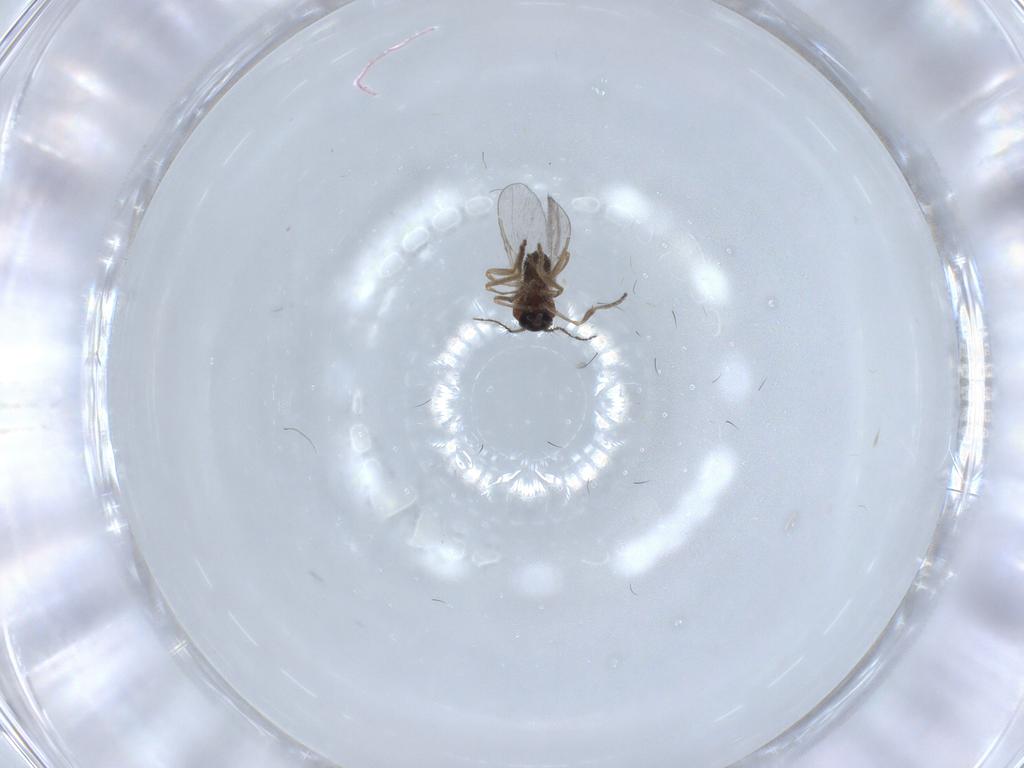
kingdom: Animalia
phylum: Arthropoda
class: Insecta
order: Diptera
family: Ceratopogonidae
